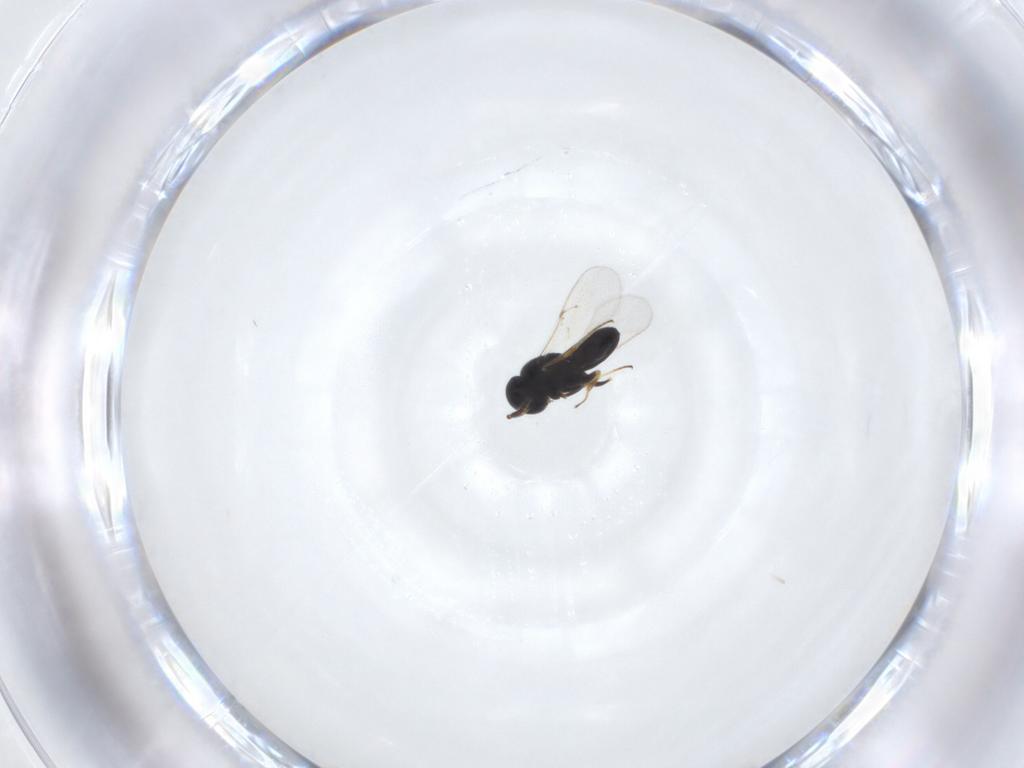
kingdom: Animalia
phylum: Arthropoda
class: Insecta
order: Hymenoptera
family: Scelionidae
